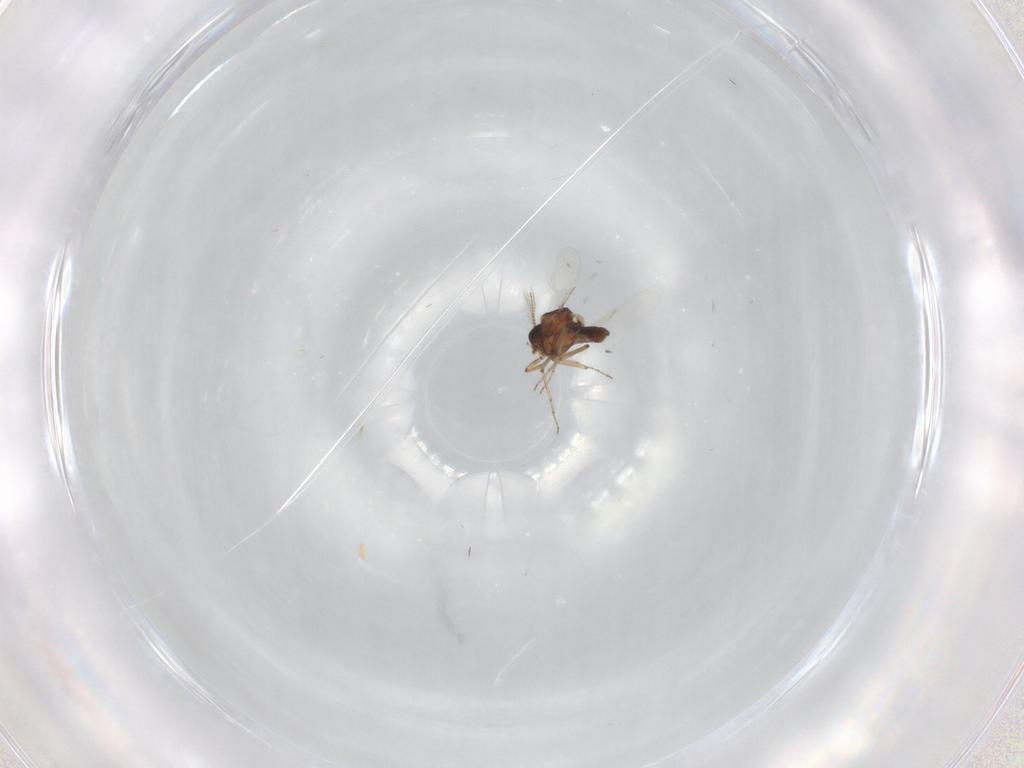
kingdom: Animalia
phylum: Arthropoda
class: Insecta
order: Diptera
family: Ceratopogonidae
